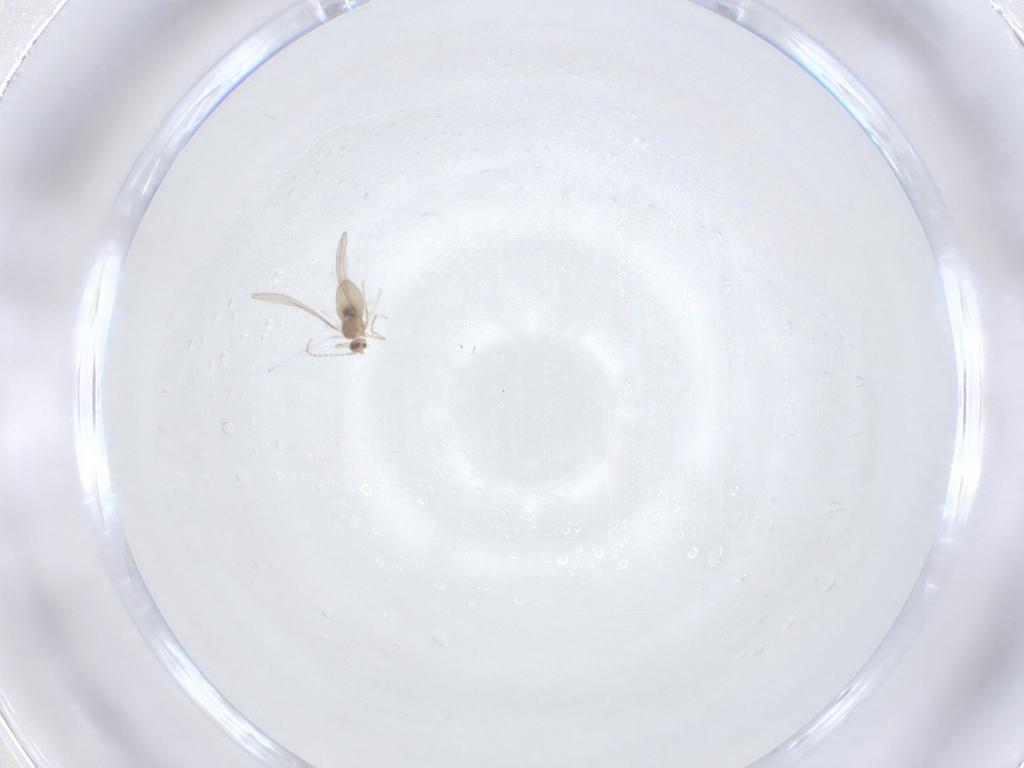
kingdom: Animalia
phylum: Arthropoda
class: Insecta
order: Diptera
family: Cecidomyiidae
